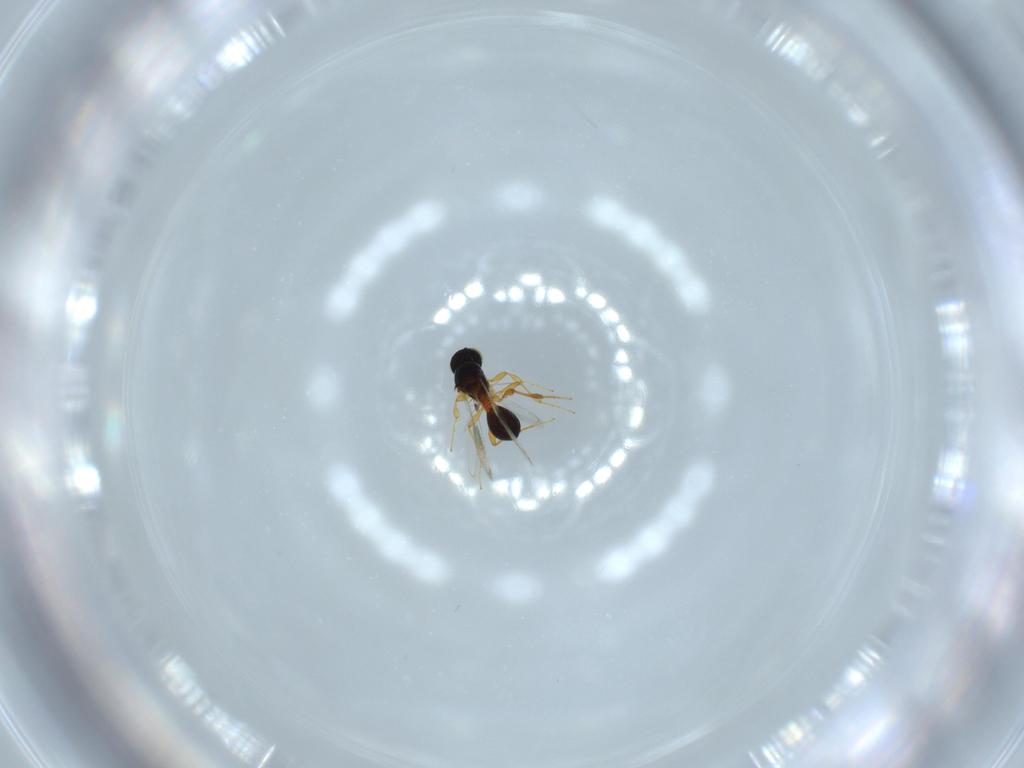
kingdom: Animalia
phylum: Arthropoda
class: Insecta
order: Hymenoptera
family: Platygastridae
